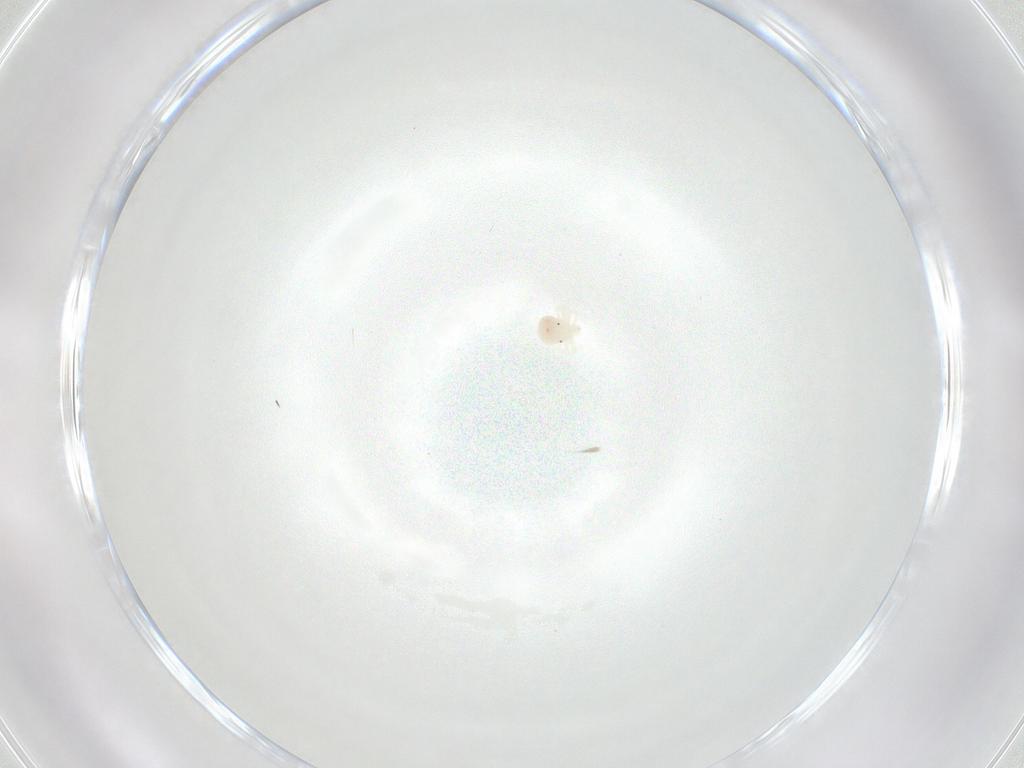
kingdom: Animalia
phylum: Arthropoda
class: Arachnida
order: Trombidiformes
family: Anystidae
